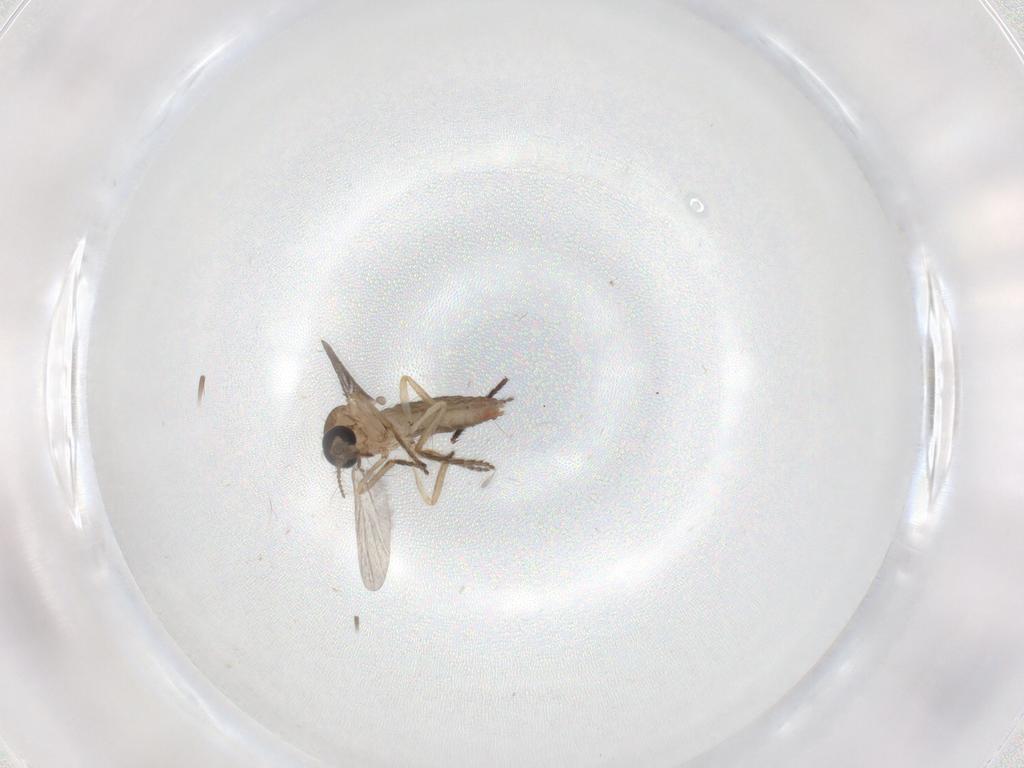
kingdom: Animalia
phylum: Arthropoda
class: Insecta
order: Diptera
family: Ceratopogonidae
